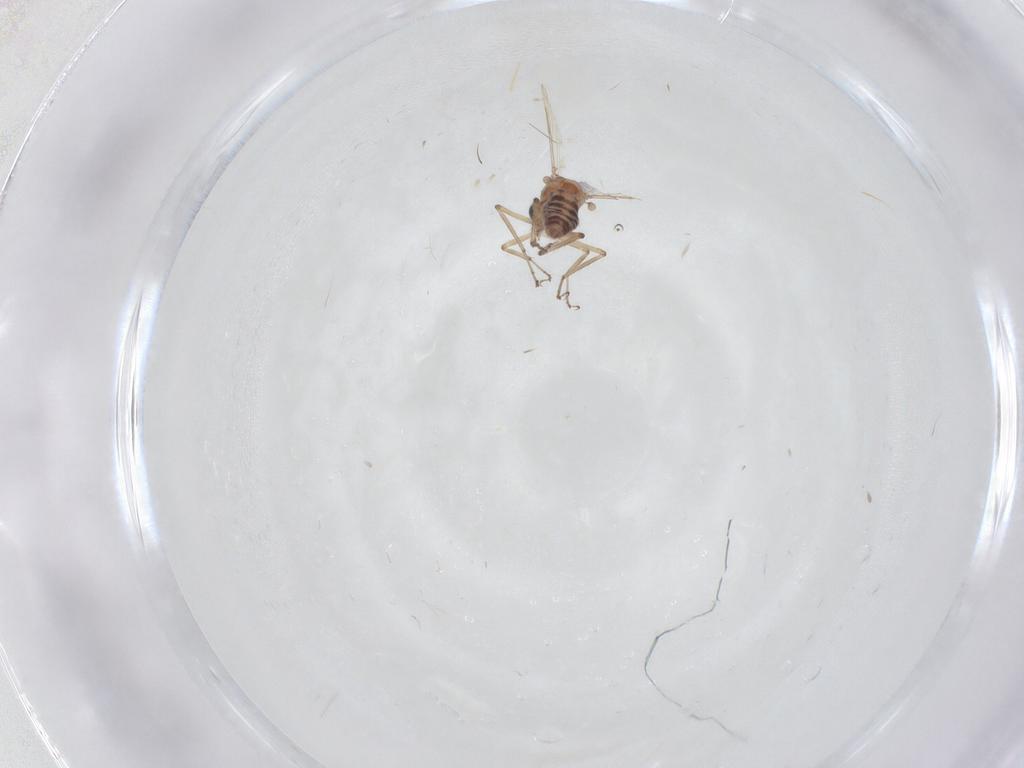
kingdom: Animalia
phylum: Arthropoda
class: Insecta
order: Diptera
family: Ceratopogonidae
